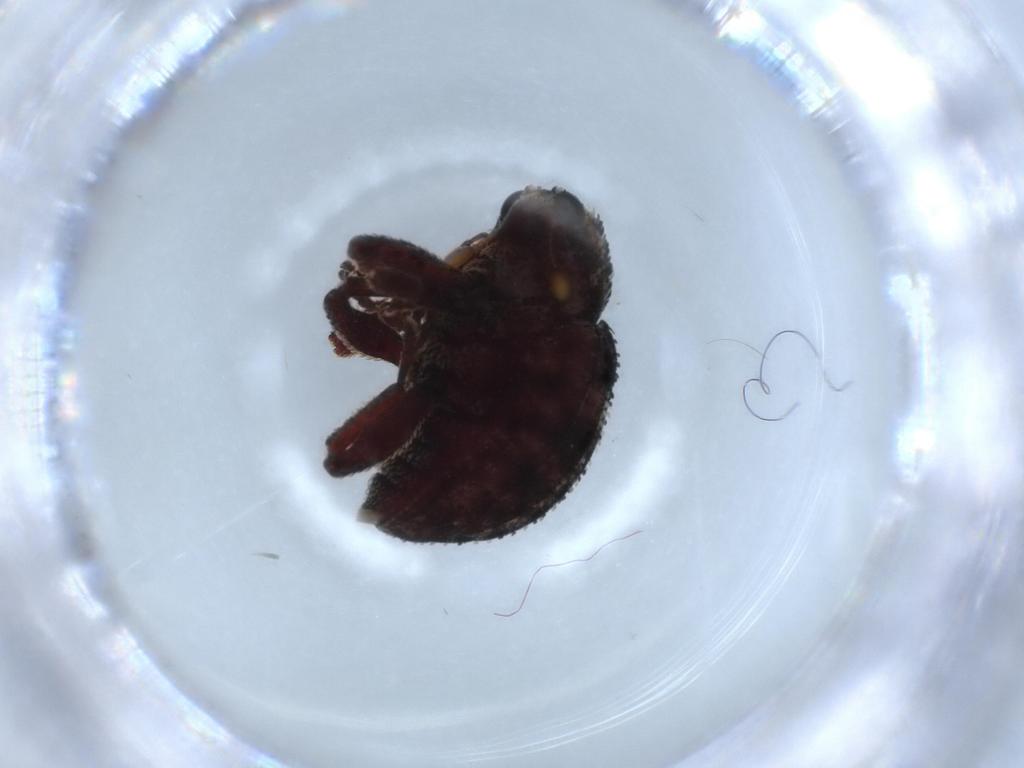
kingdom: Animalia
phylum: Arthropoda
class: Insecta
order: Coleoptera
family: Curculionidae
